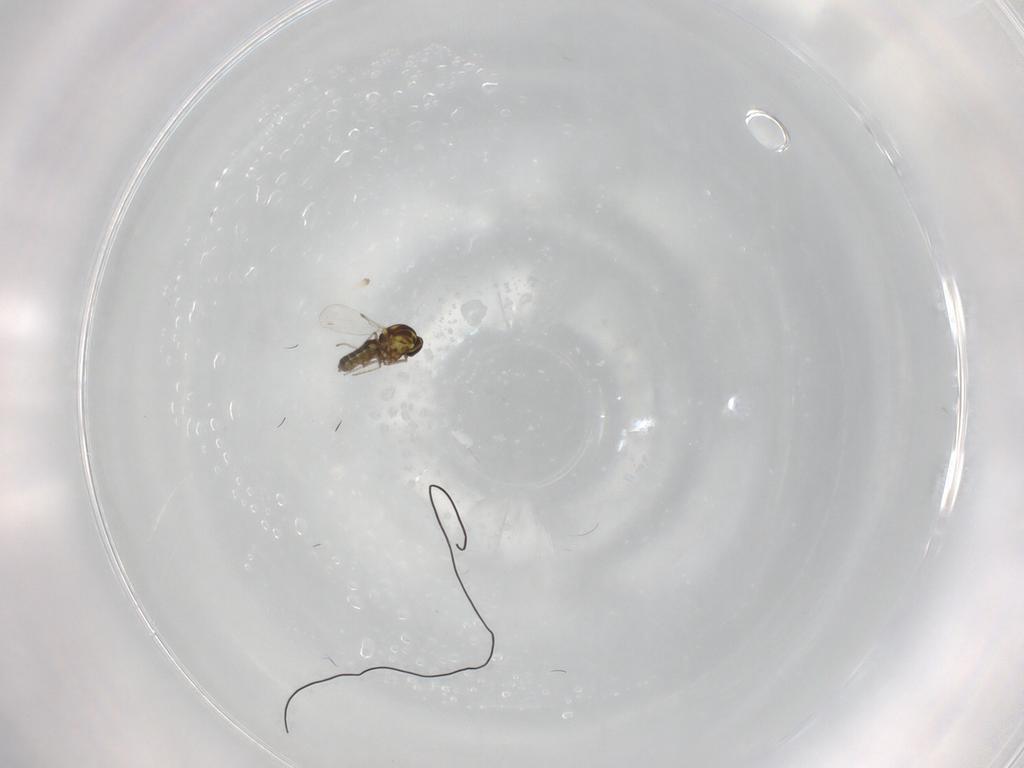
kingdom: Animalia
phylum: Arthropoda
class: Insecta
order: Diptera
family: Ceratopogonidae
